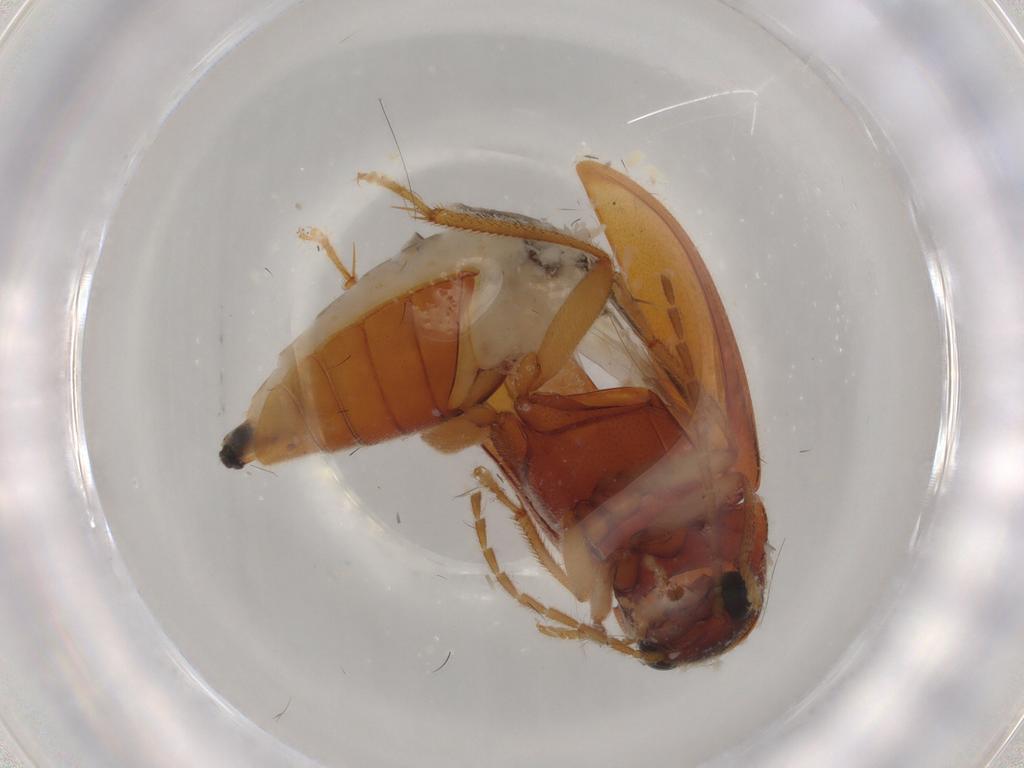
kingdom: Animalia
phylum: Arthropoda
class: Insecta
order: Coleoptera
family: Ptilodactylidae
